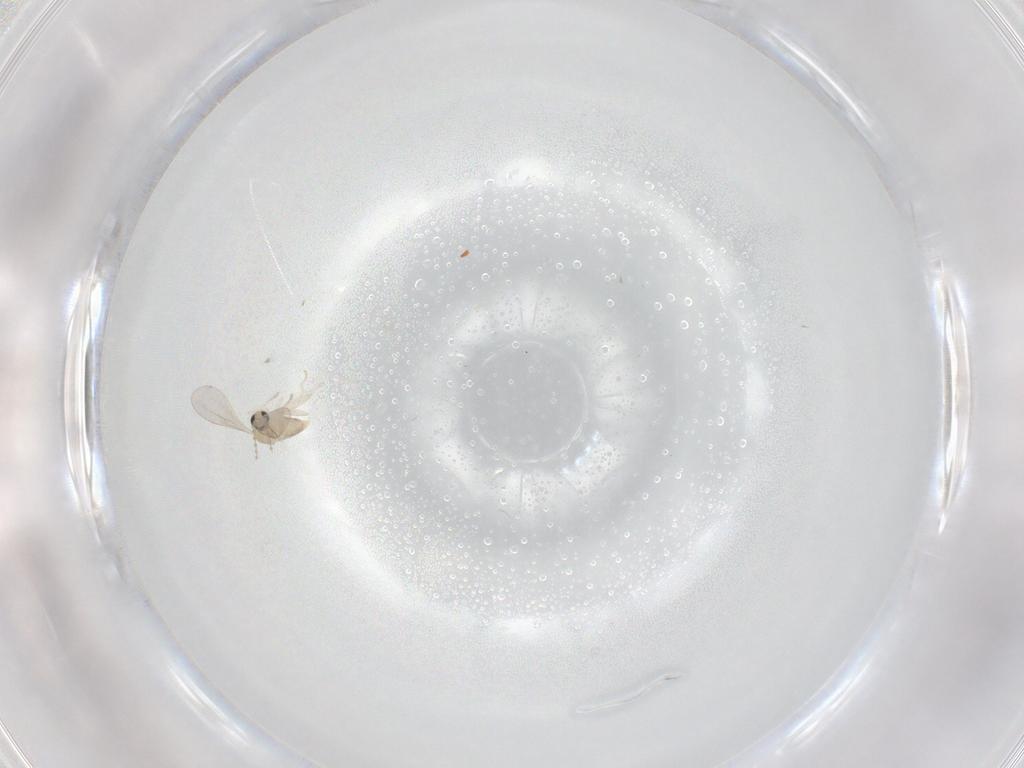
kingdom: Animalia
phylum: Arthropoda
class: Insecta
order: Diptera
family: Cecidomyiidae
